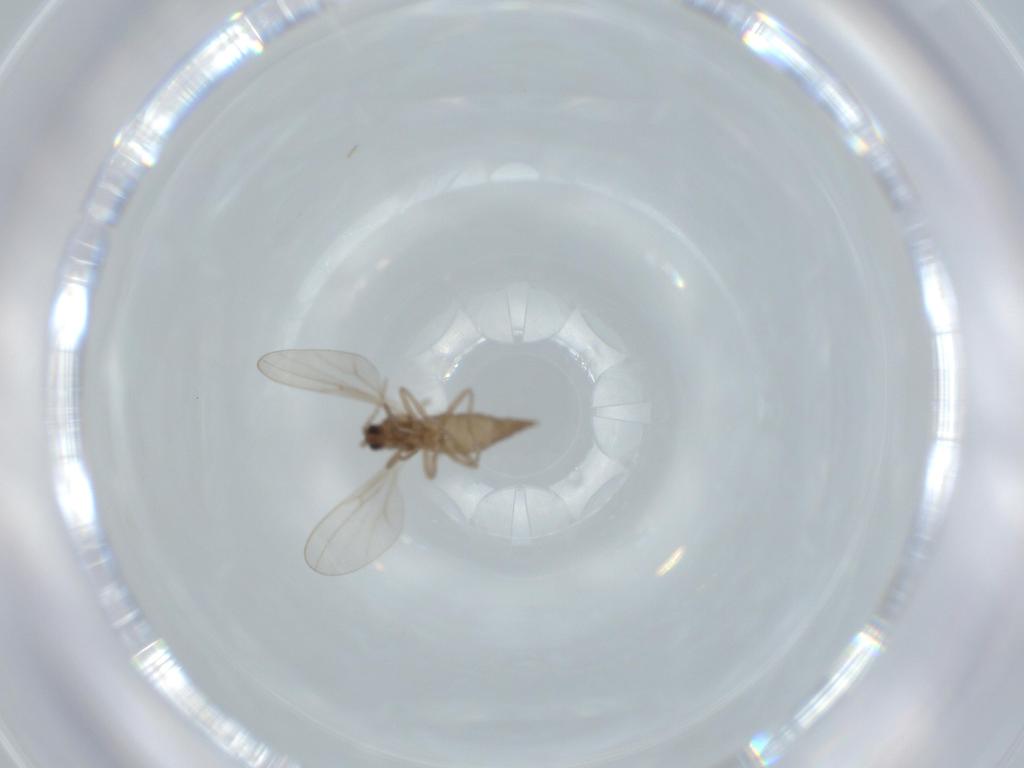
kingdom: Animalia
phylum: Arthropoda
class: Insecta
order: Diptera
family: Cecidomyiidae
